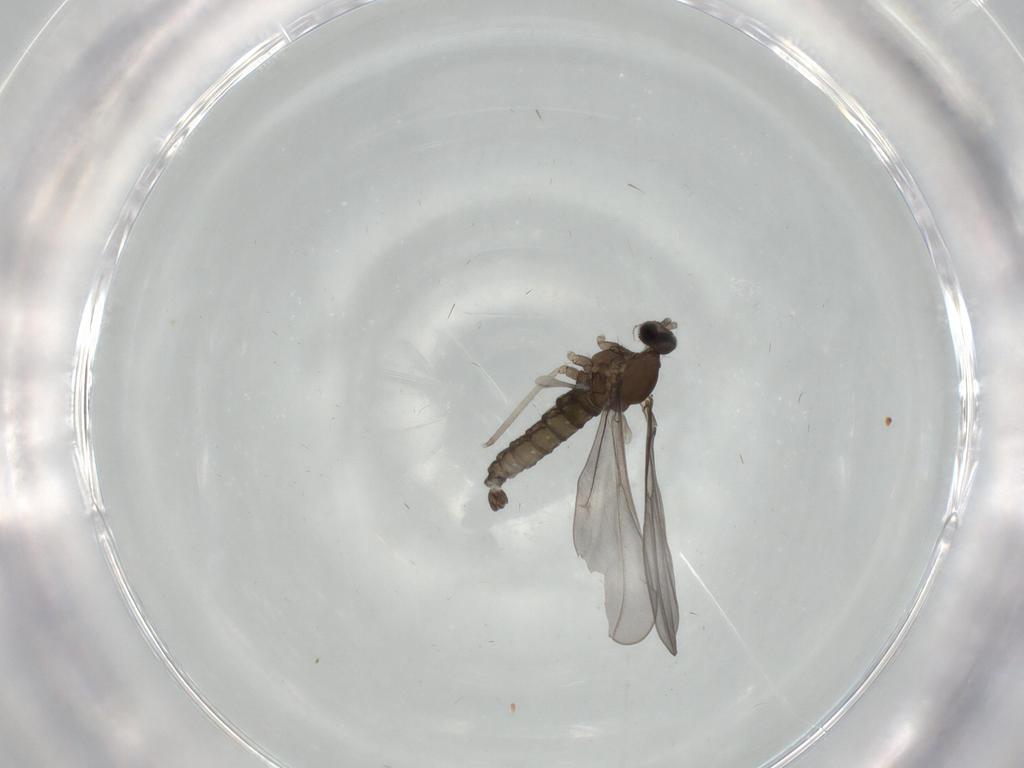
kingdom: Animalia
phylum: Arthropoda
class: Insecta
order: Diptera
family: Cecidomyiidae
